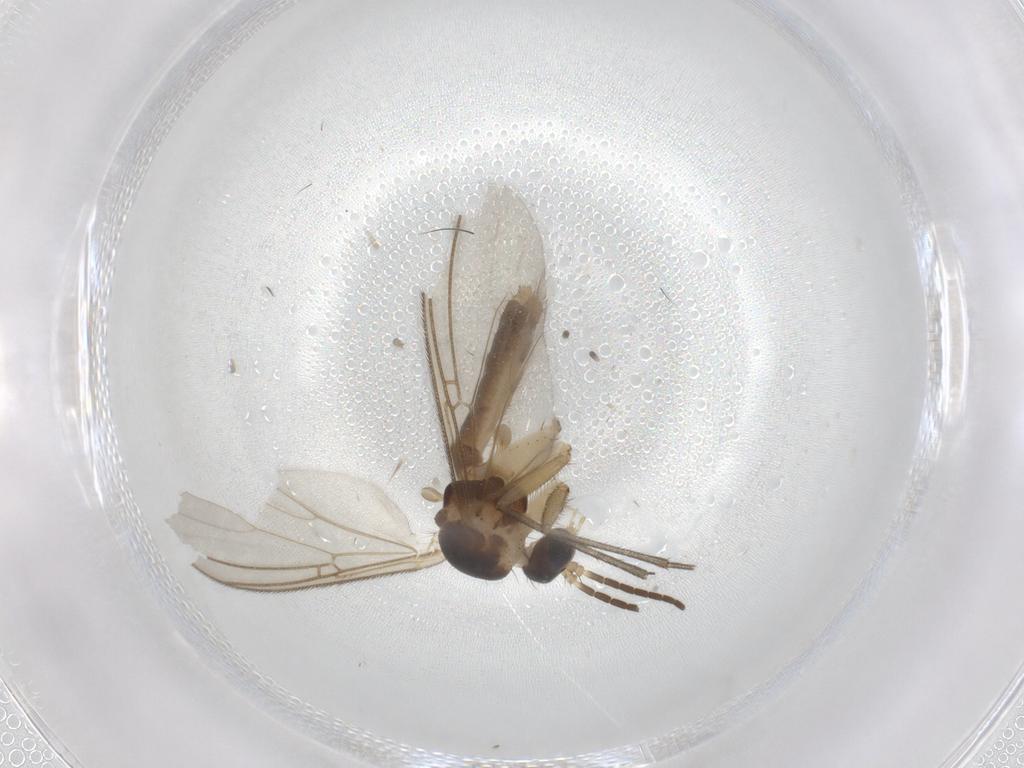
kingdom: Animalia
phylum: Arthropoda
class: Insecta
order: Diptera
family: Mycetophilidae
